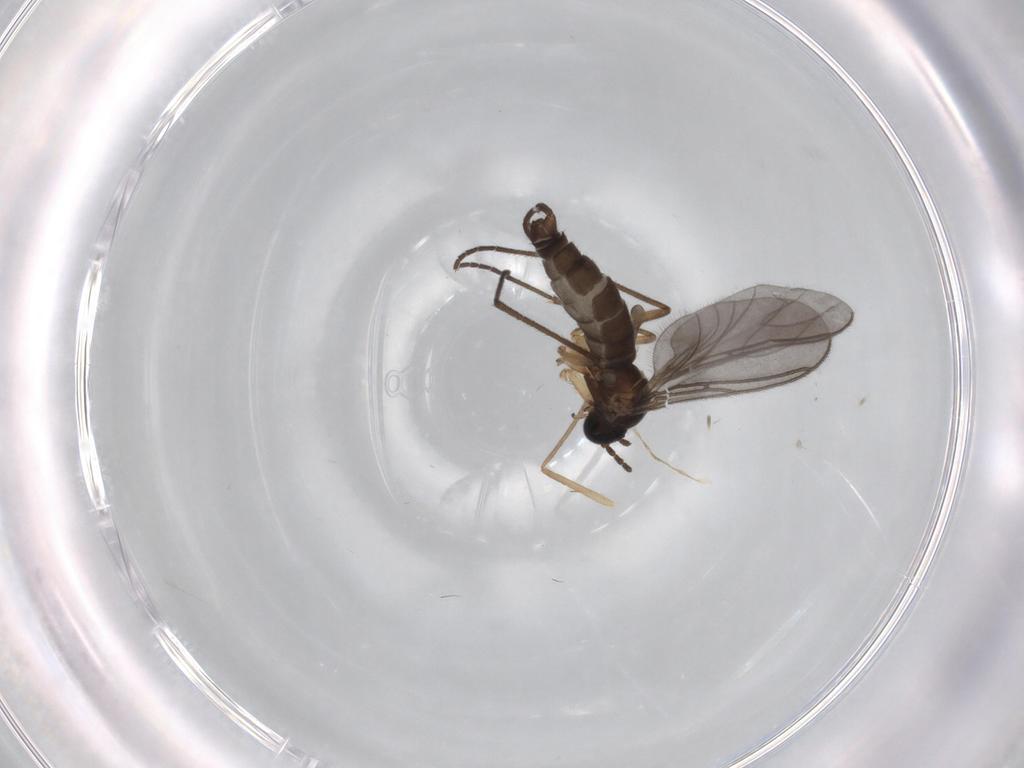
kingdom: Animalia
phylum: Arthropoda
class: Insecta
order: Diptera
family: Sciaridae
